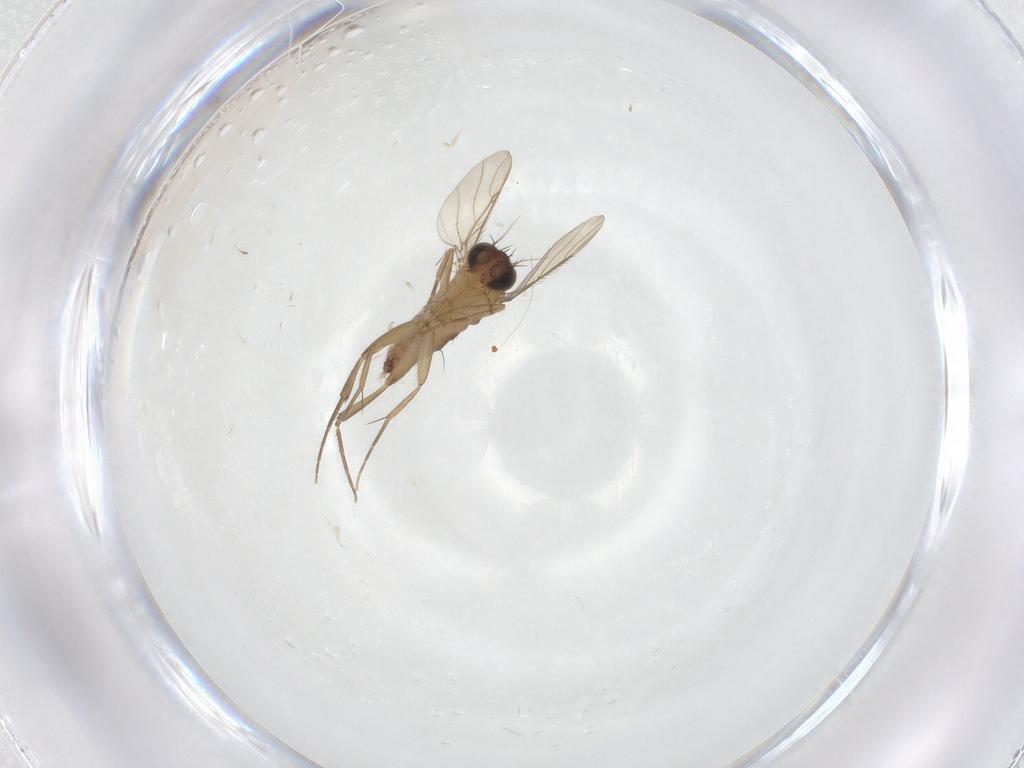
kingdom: Animalia
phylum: Arthropoda
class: Insecta
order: Diptera
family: Phoridae
